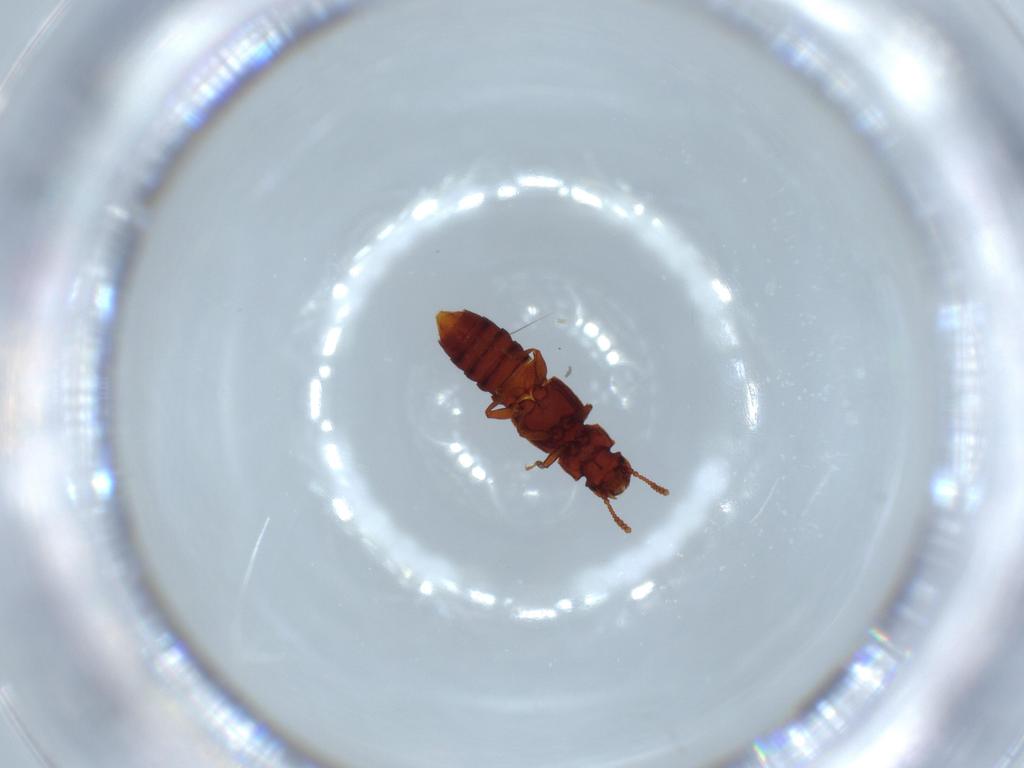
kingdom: Animalia
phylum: Arthropoda
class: Insecta
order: Coleoptera
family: Staphylinidae
